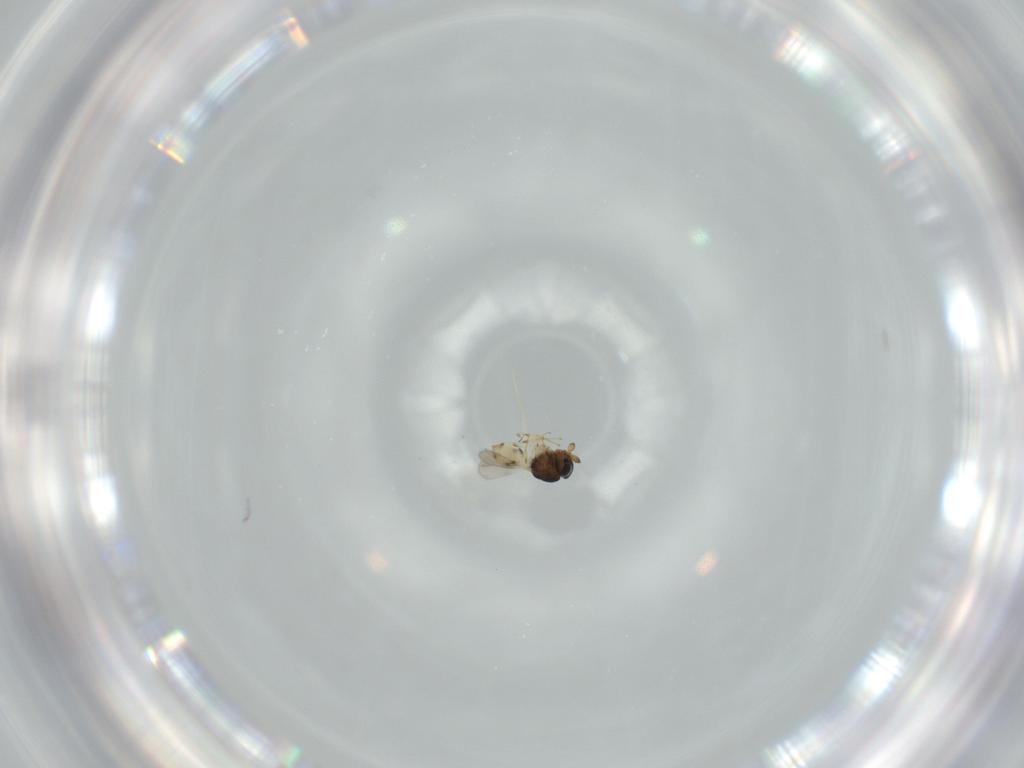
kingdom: Animalia
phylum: Arthropoda
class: Insecta
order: Hymenoptera
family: Scelionidae
